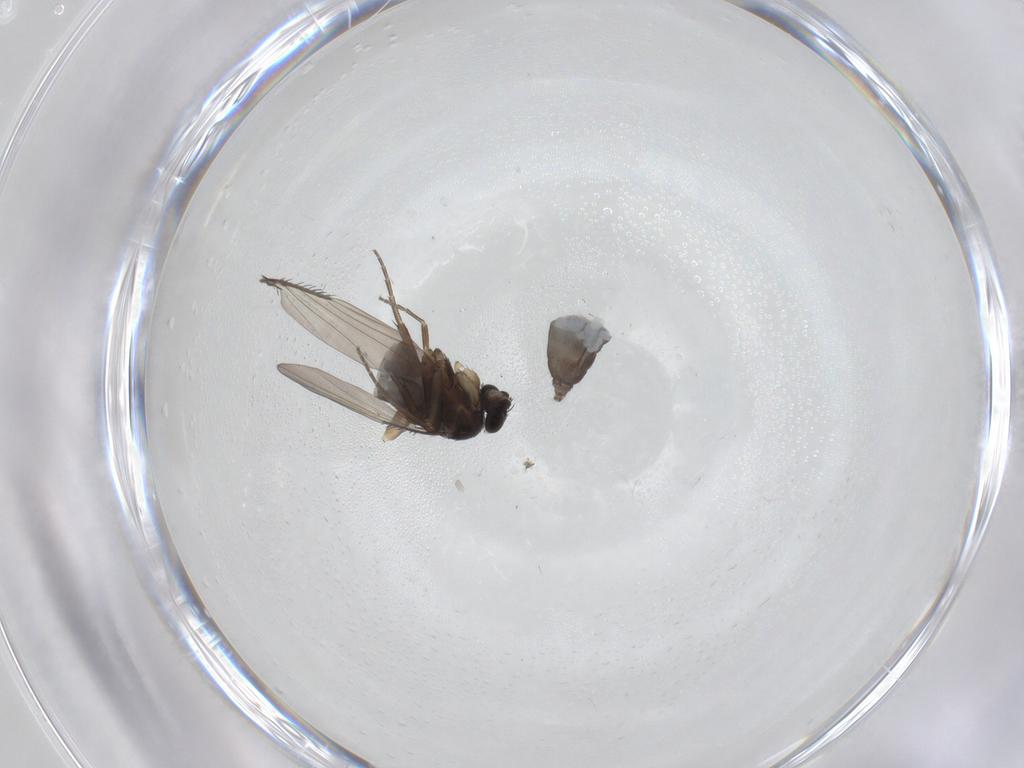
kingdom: Animalia
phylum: Arthropoda
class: Insecta
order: Diptera
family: Phoridae
